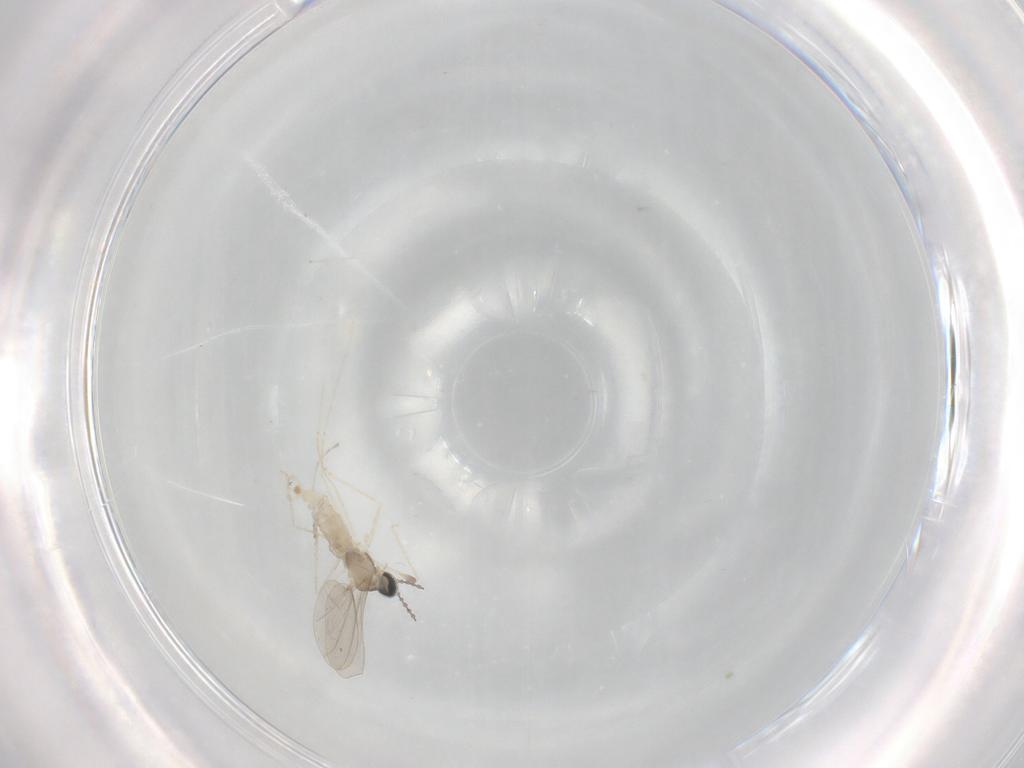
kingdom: Animalia
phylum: Arthropoda
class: Insecta
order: Diptera
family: Cecidomyiidae
